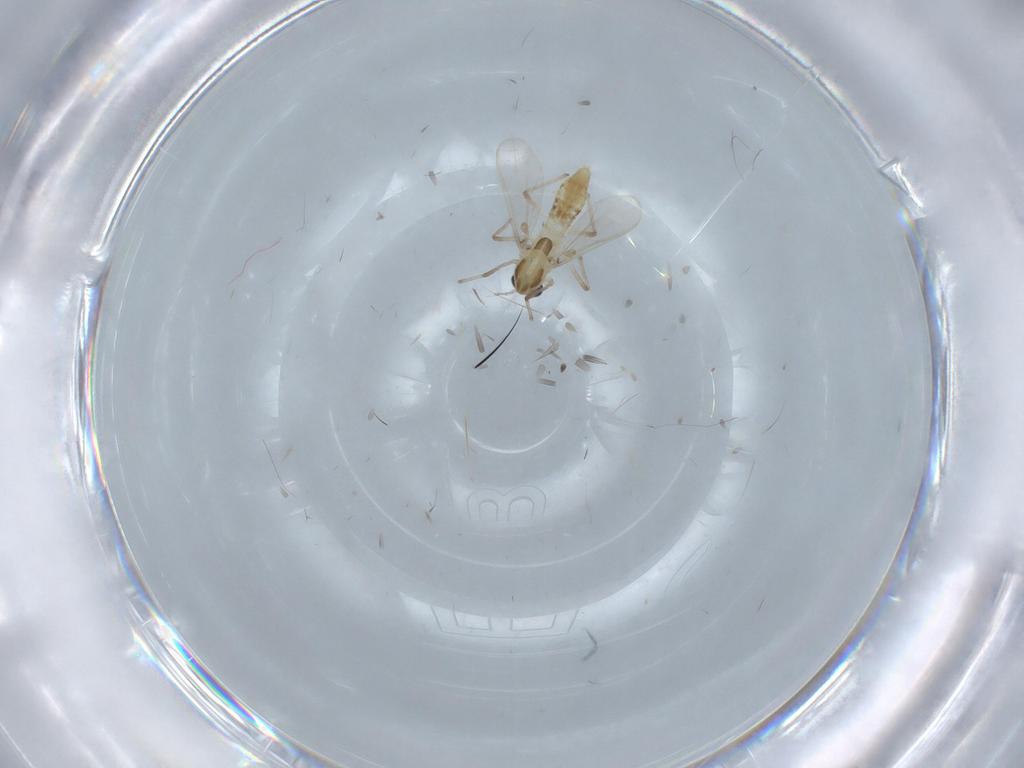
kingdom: Animalia
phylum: Arthropoda
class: Insecta
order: Diptera
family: Chironomidae
